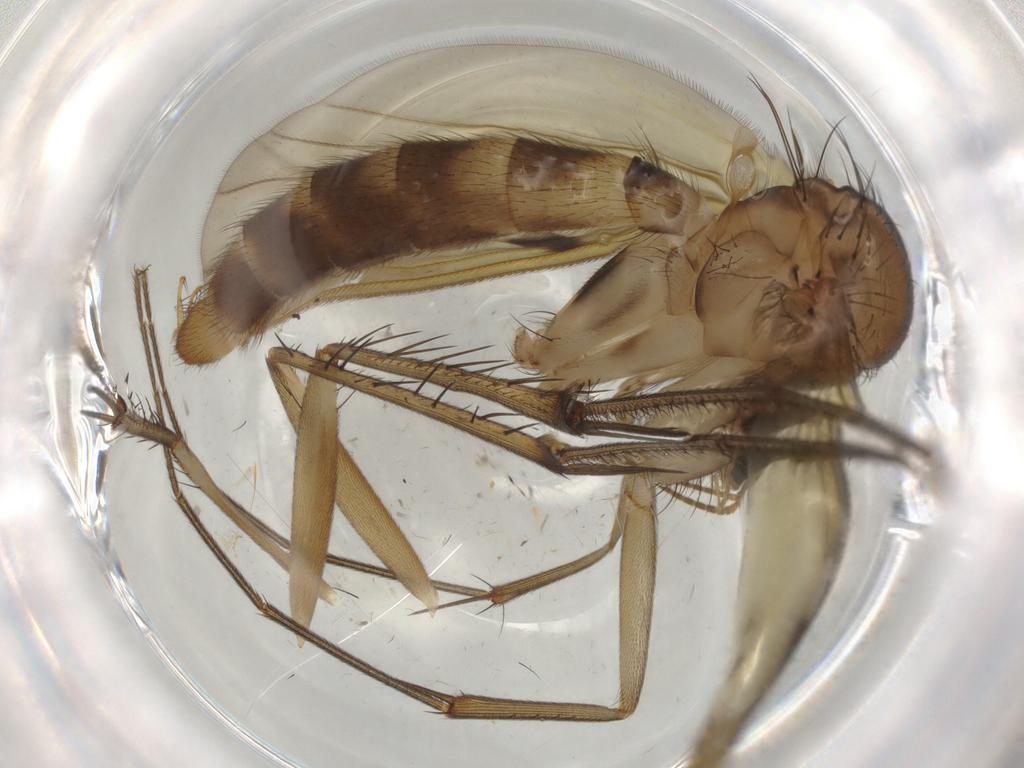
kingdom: Animalia
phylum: Arthropoda
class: Insecta
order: Diptera
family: Mycetophilidae
